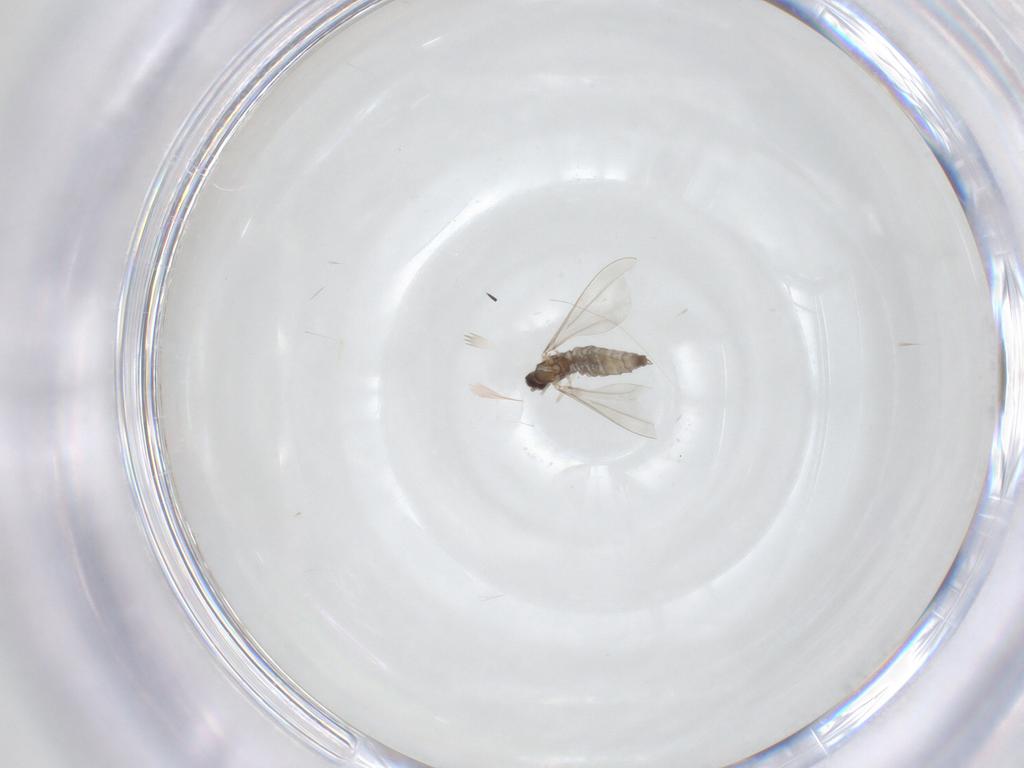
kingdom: Animalia
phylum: Arthropoda
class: Insecta
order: Diptera
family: Cecidomyiidae
